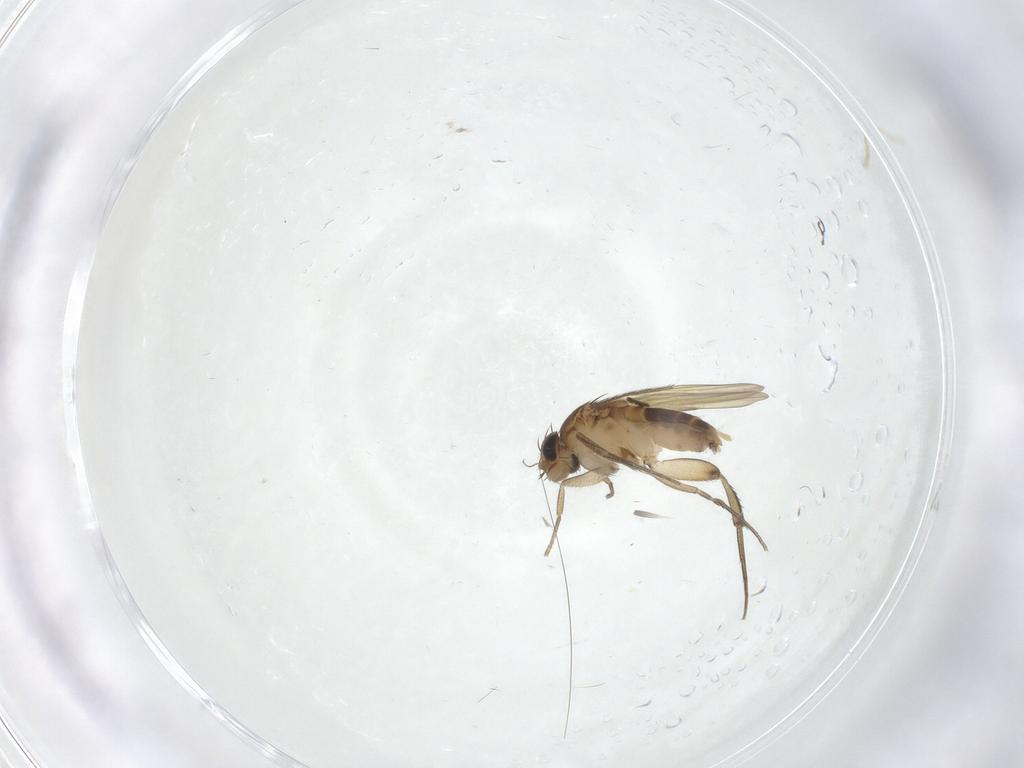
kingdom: Animalia
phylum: Arthropoda
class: Insecta
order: Diptera
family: Phoridae
